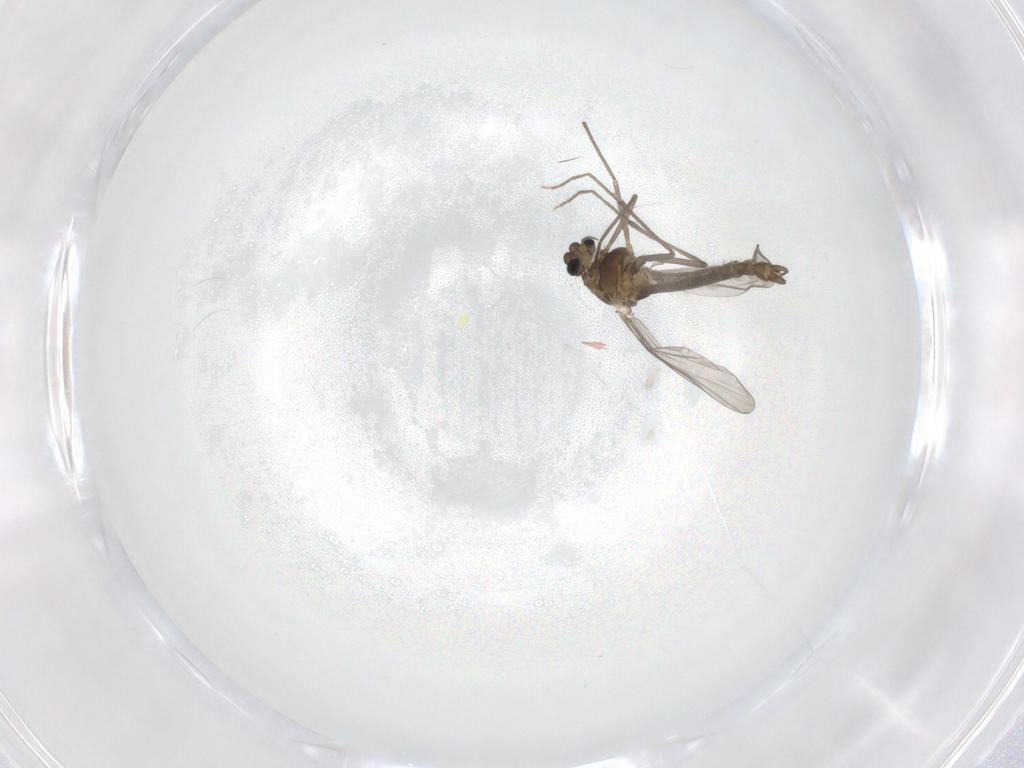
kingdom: Animalia
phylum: Arthropoda
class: Insecta
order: Diptera
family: Chironomidae
